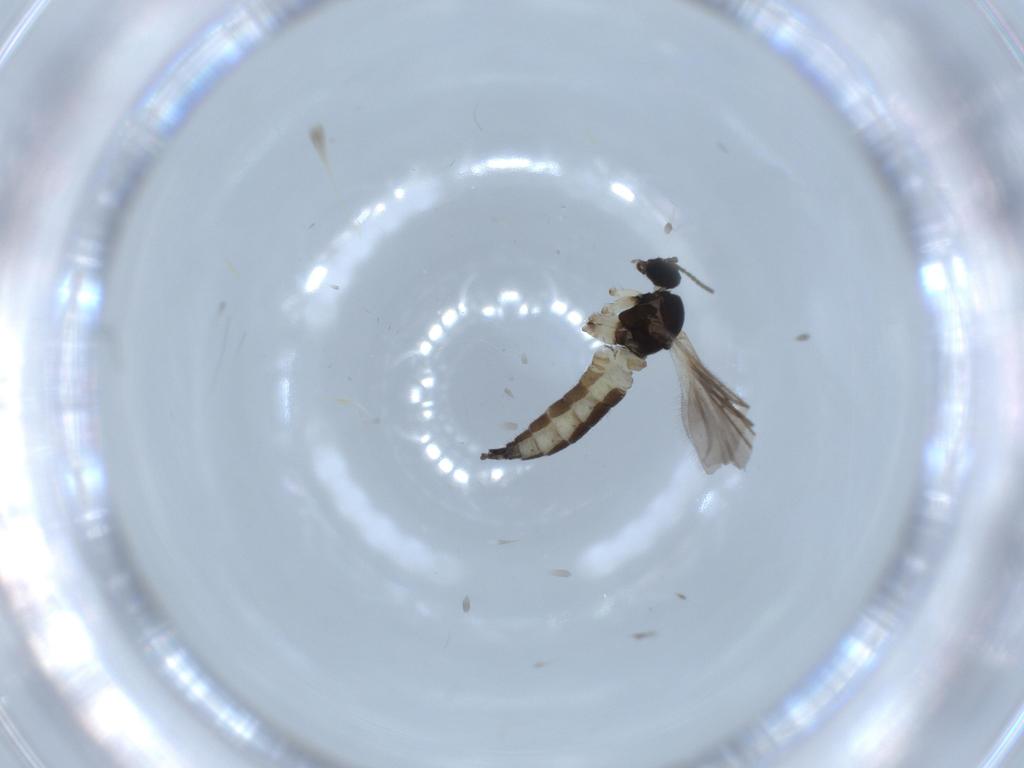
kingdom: Animalia
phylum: Arthropoda
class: Insecta
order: Diptera
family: Sciaridae
